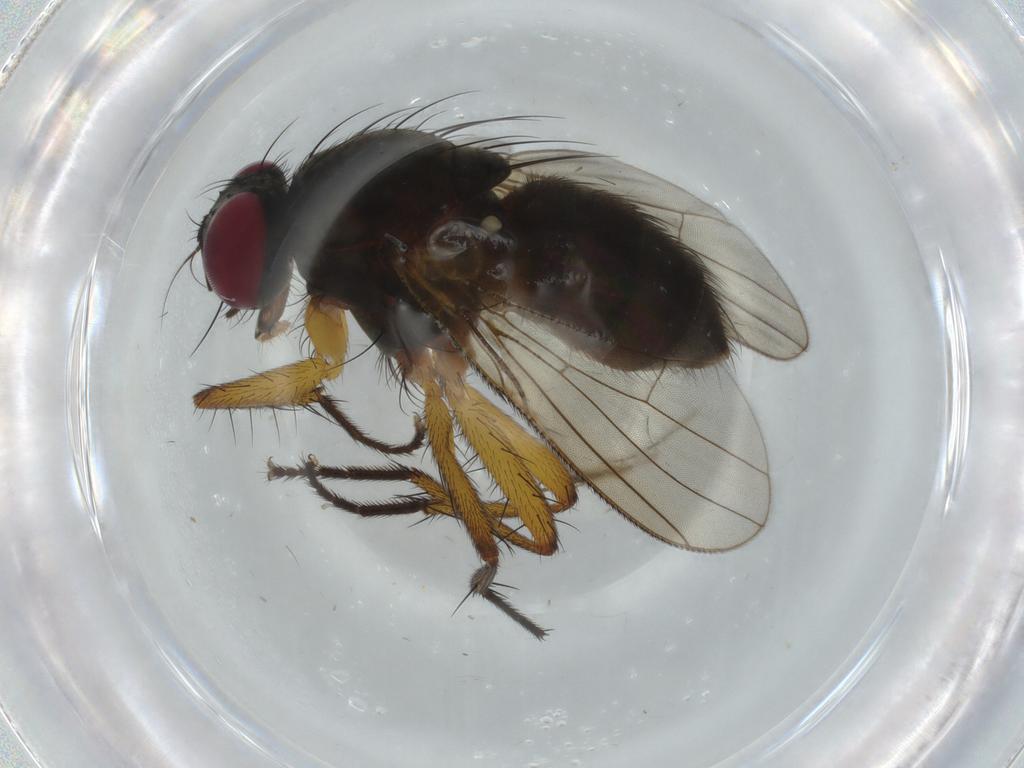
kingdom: Animalia
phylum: Arthropoda
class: Insecta
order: Diptera
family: Muscidae
